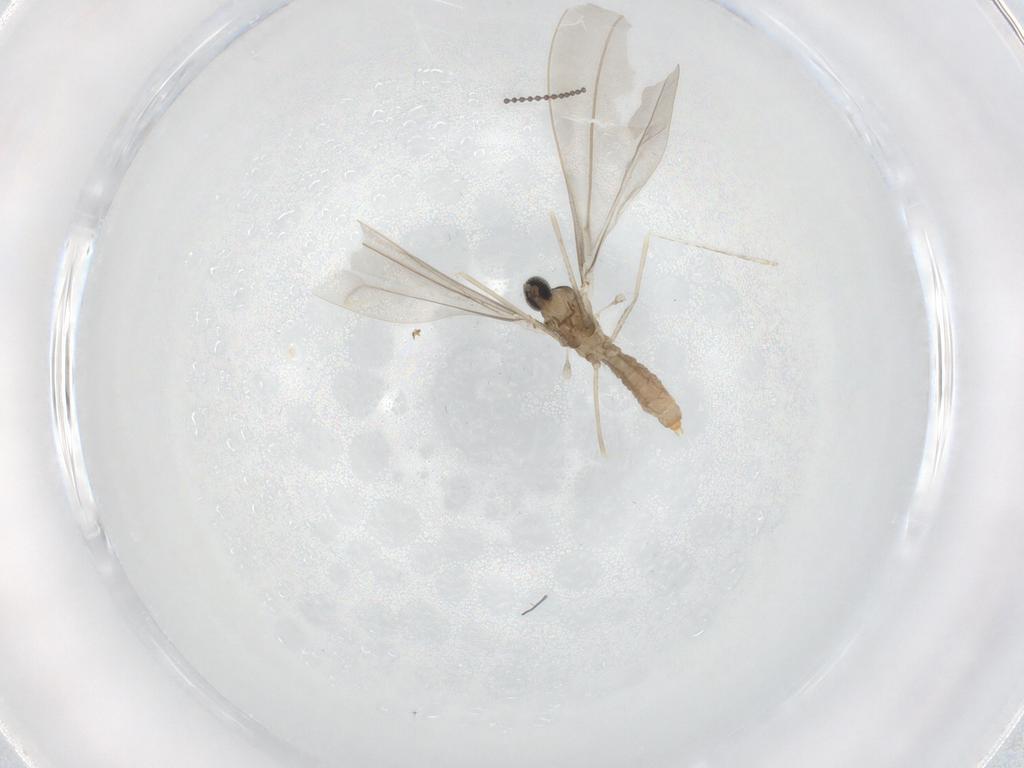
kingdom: Animalia
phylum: Arthropoda
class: Insecta
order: Diptera
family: Cecidomyiidae
